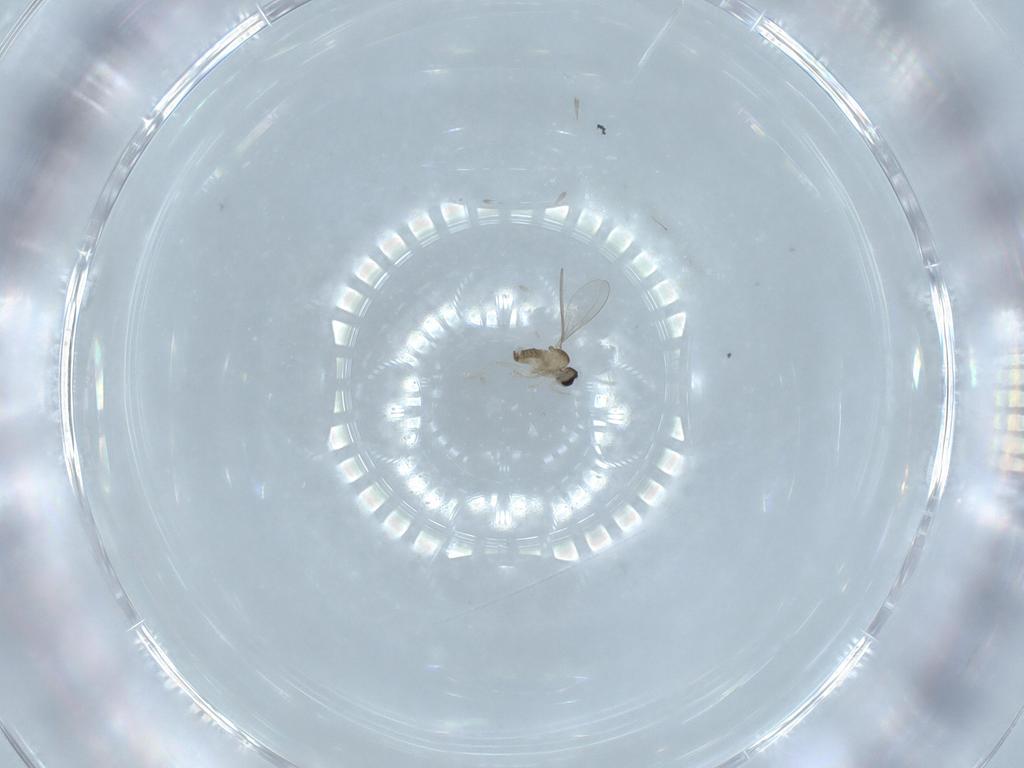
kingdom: Animalia
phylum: Arthropoda
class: Insecta
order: Diptera
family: Cecidomyiidae
